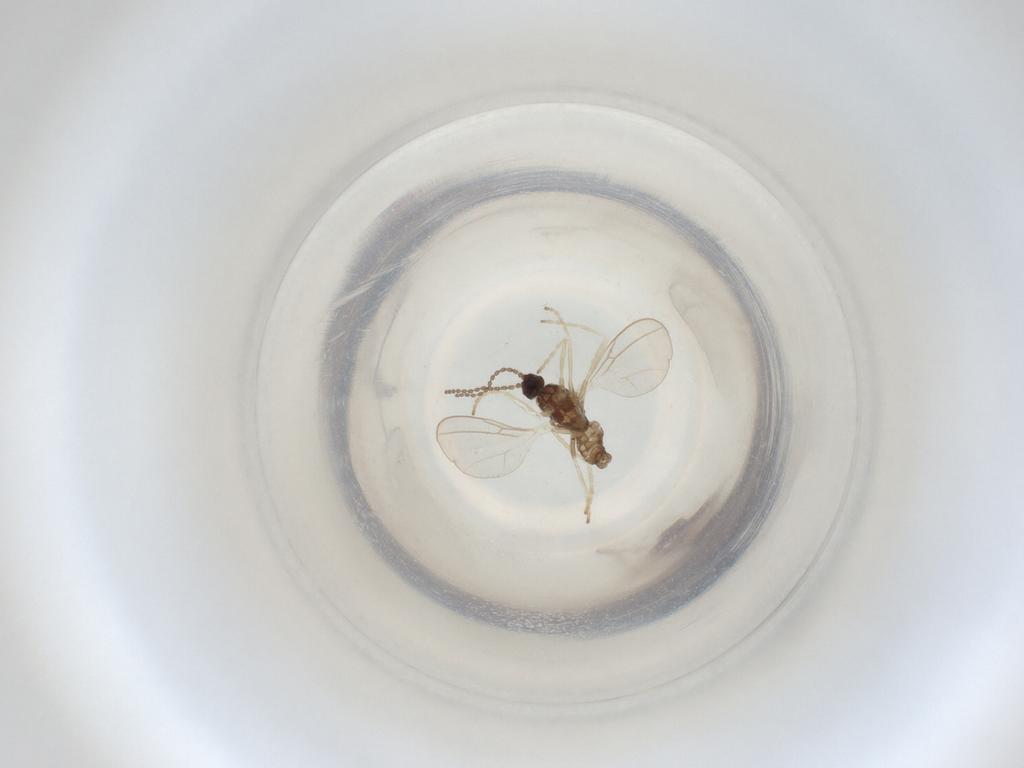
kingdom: Animalia
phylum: Arthropoda
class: Insecta
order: Diptera
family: Cecidomyiidae
